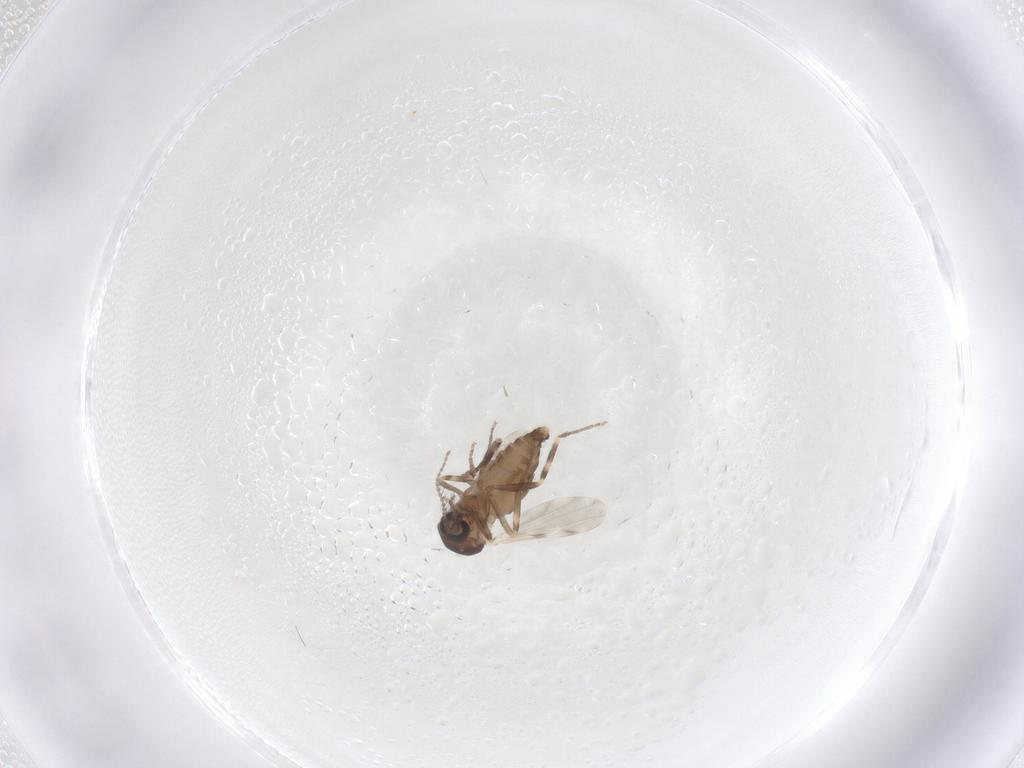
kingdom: Animalia
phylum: Arthropoda
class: Insecta
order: Diptera
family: Ceratopogonidae
